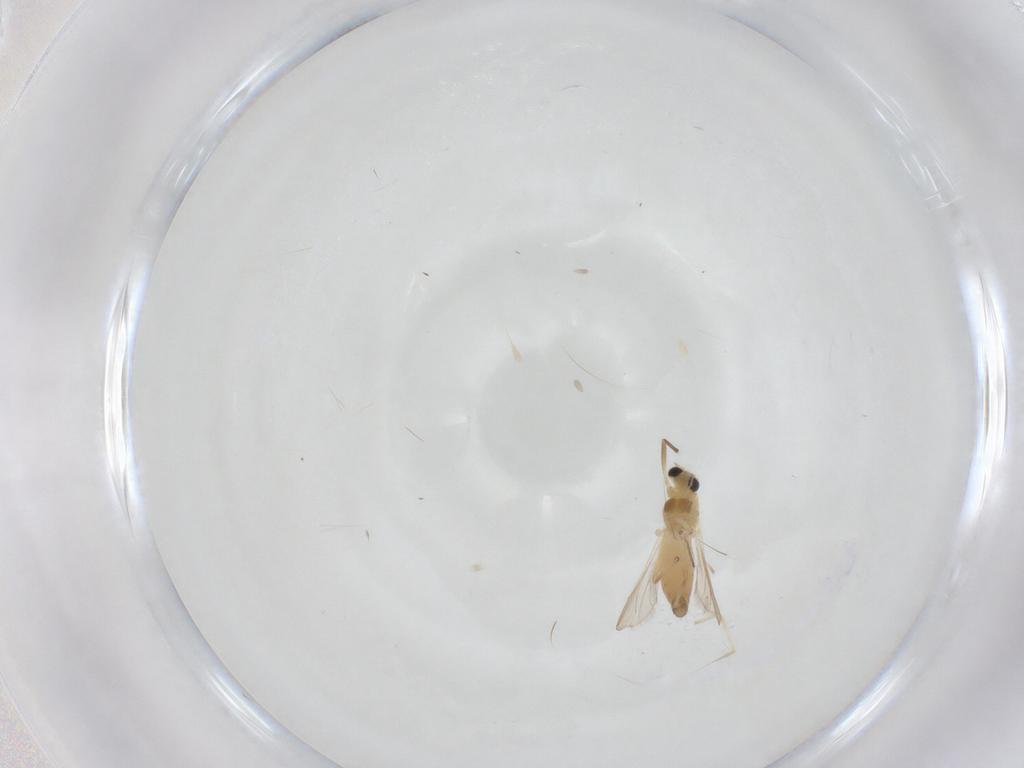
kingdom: Animalia
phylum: Arthropoda
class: Insecta
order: Diptera
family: Chironomidae
